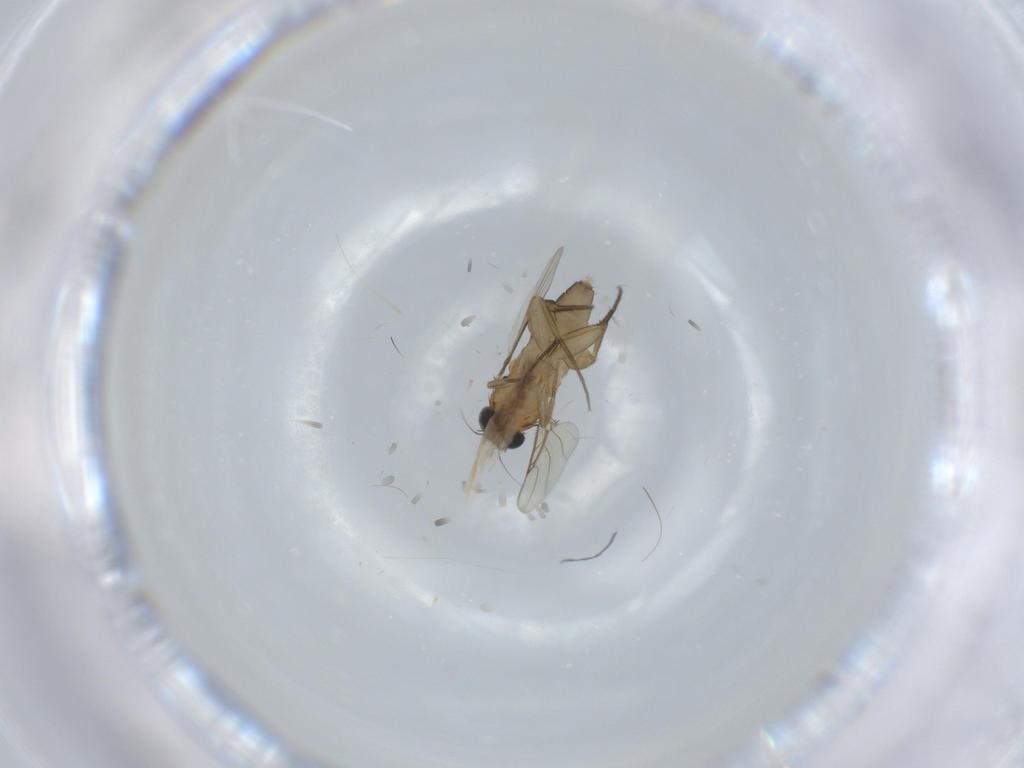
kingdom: Animalia
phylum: Arthropoda
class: Insecta
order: Diptera
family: Phoridae
